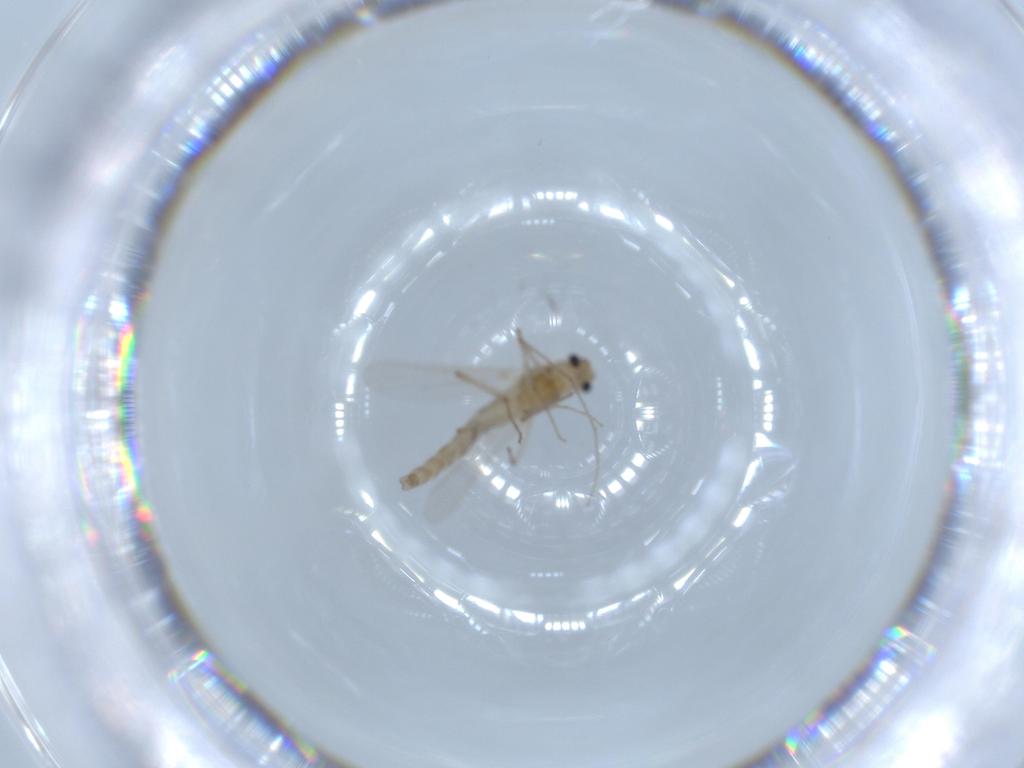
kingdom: Animalia
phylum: Arthropoda
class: Insecta
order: Diptera
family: Chironomidae
